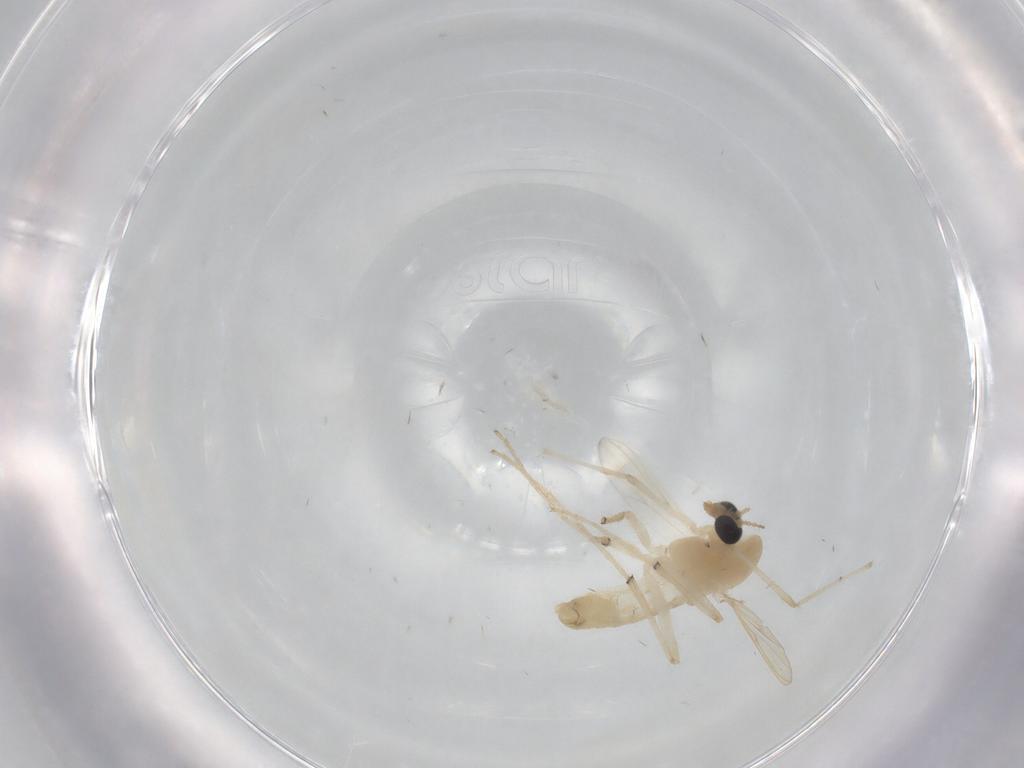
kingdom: Animalia
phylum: Arthropoda
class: Insecta
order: Diptera
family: Chironomidae
